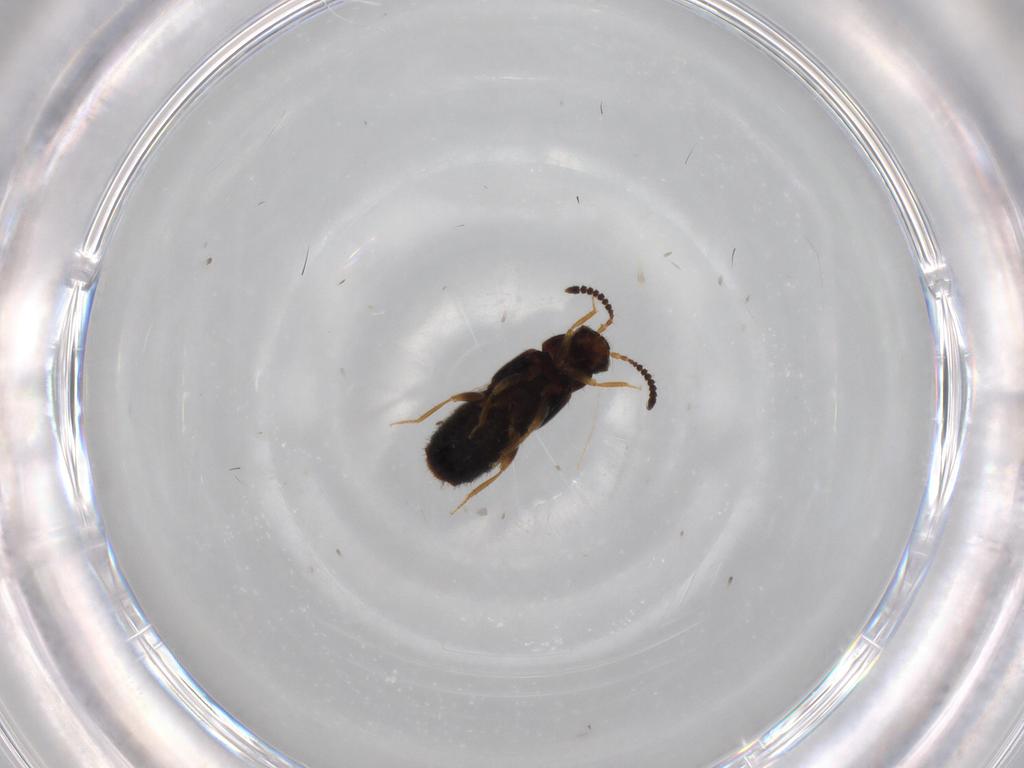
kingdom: Animalia
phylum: Arthropoda
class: Insecta
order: Coleoptera
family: Staphylinidae
